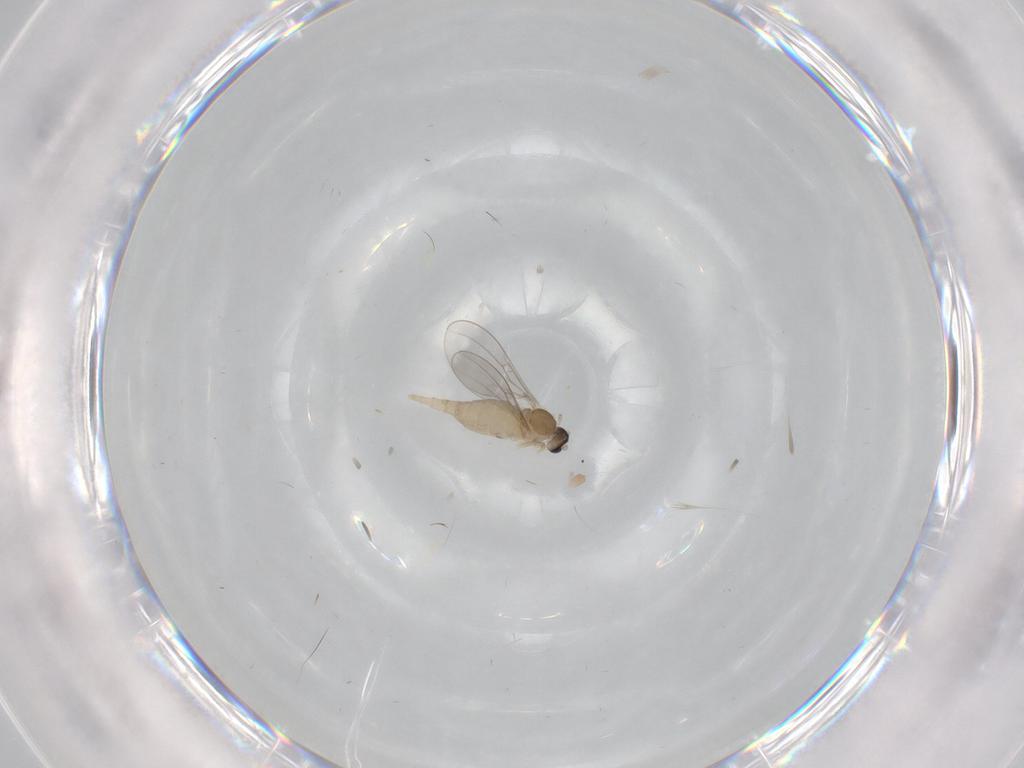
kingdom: Animalia
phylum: Arthropoda
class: Insecta
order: Diptera
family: Cecidomyiidae
